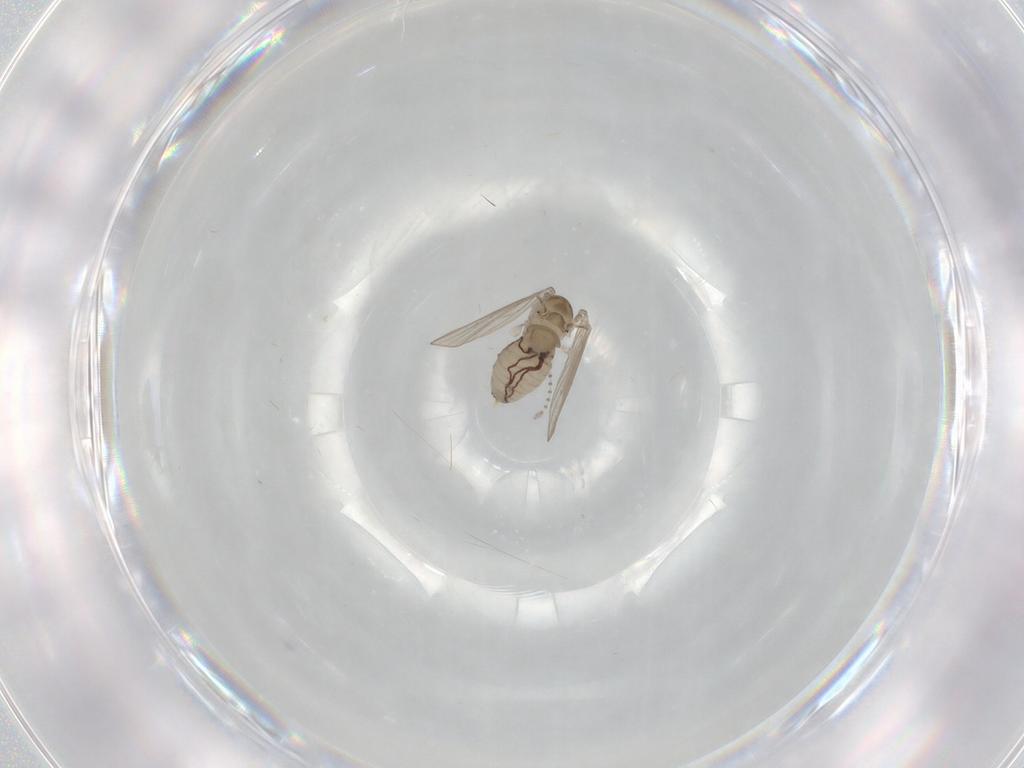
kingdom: Animalia
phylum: Arthropoda
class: Insecta
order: Diptera
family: Psychodidae
